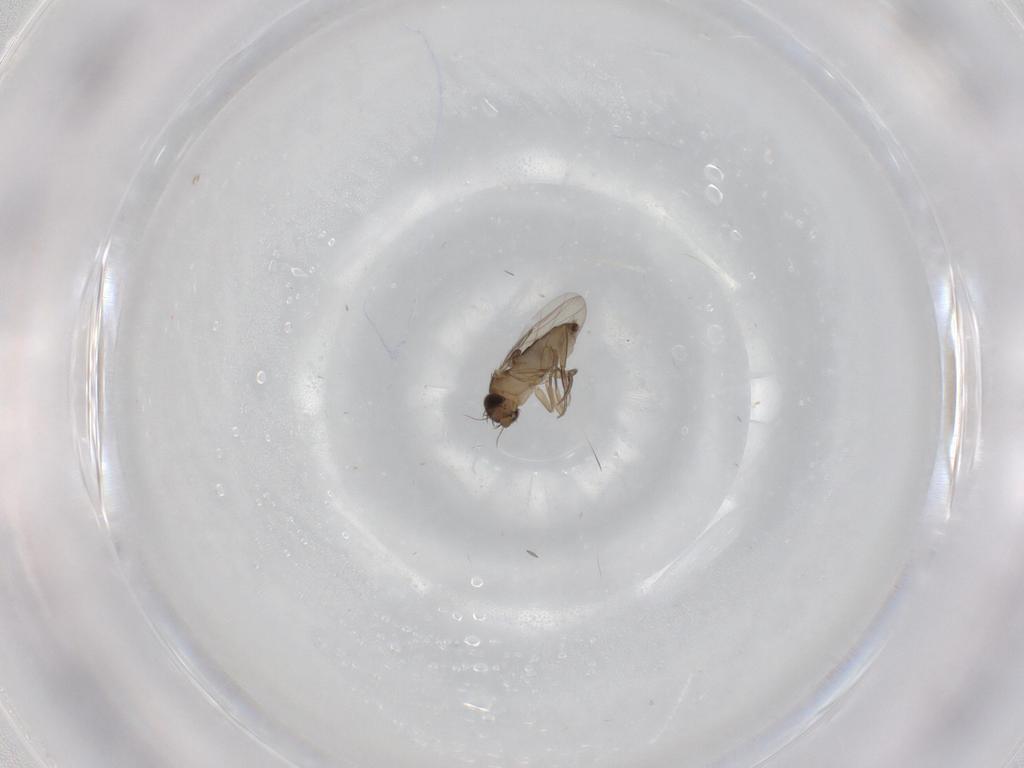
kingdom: Animalia
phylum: Arthropoda
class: Insecta
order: Diptera
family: Phoridae
